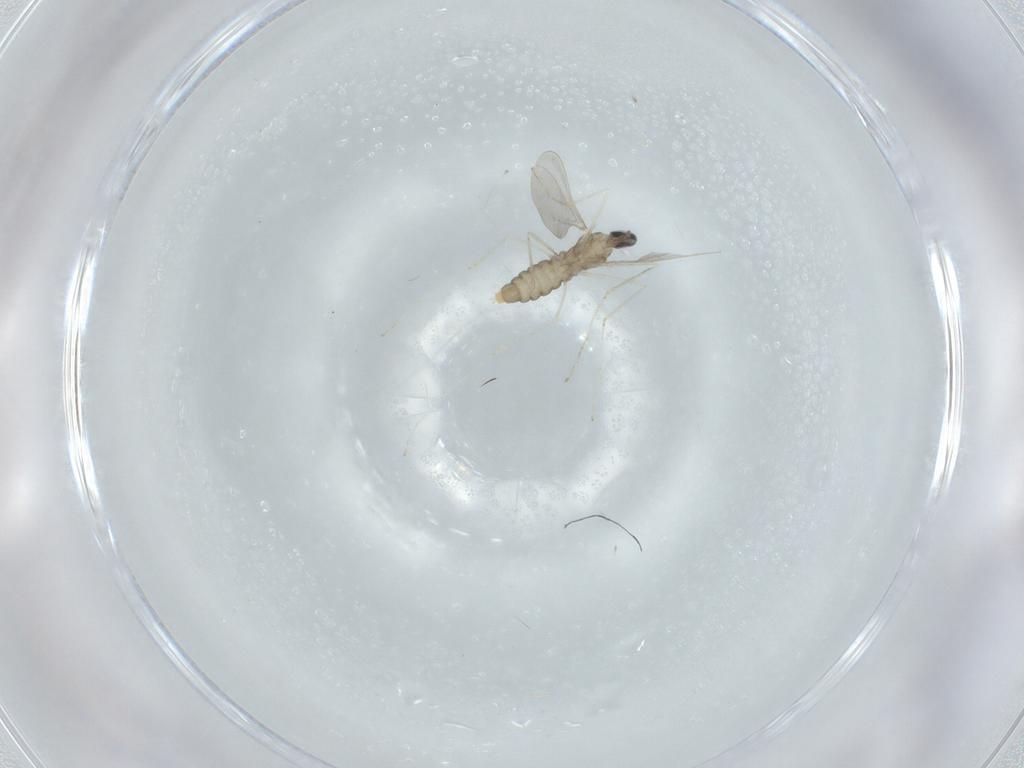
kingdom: Animalia
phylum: Arthropoda
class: Insecta
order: Diptera
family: Cecidomyiidae
